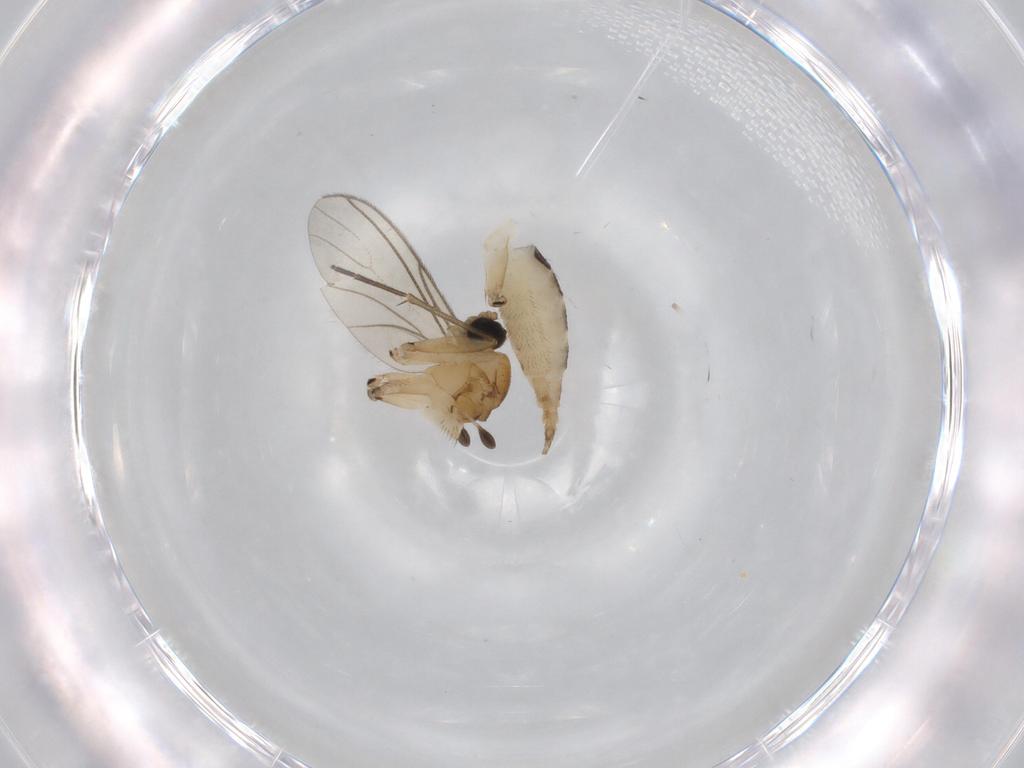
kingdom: Animalia
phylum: Arthropoda
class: Insecta
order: Diptera
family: Sciaridae
